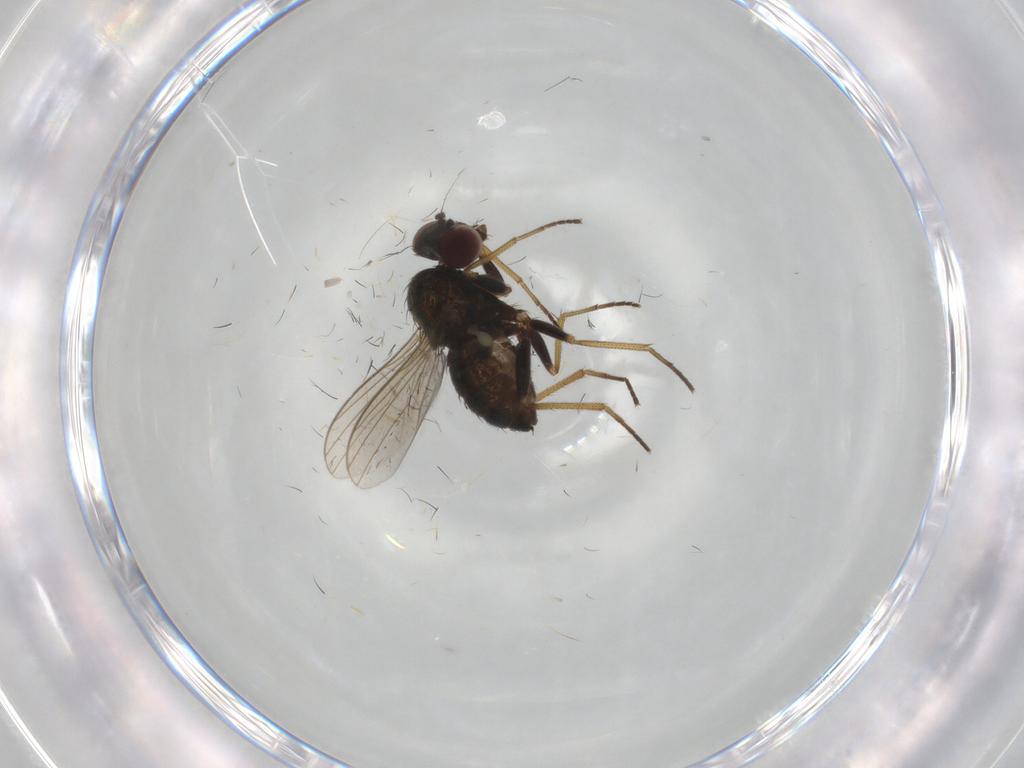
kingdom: Animalia
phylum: Arthropoda
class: Insecta
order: Diptera
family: Dolichopodidae
